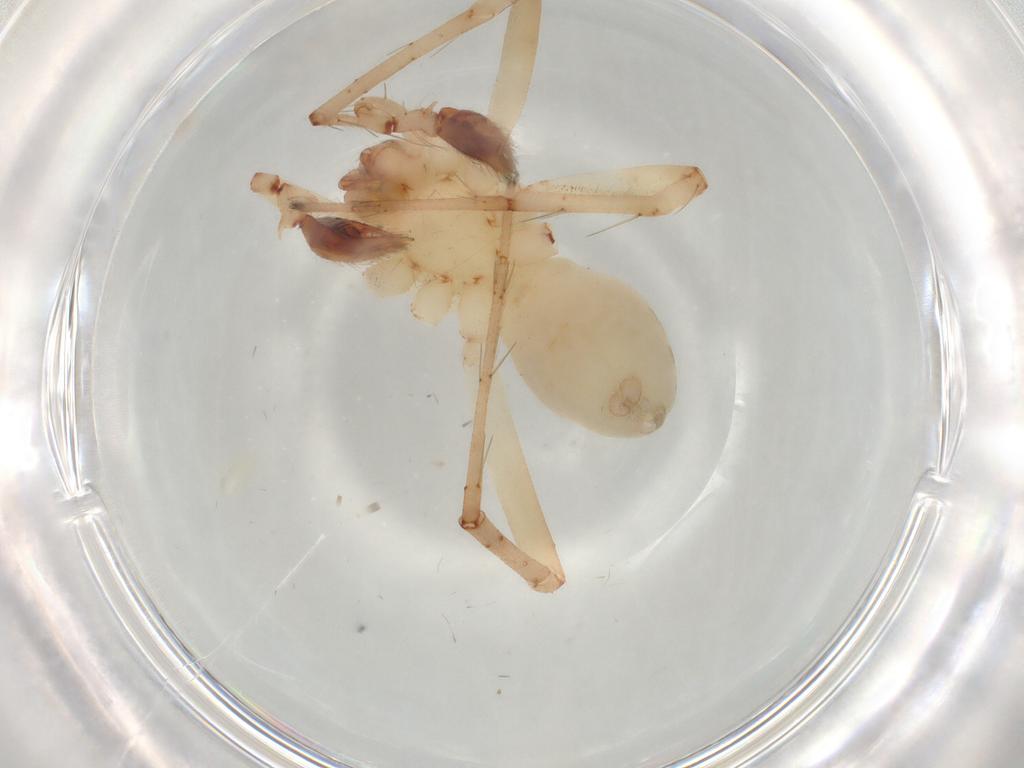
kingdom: Animalia
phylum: Arthropoda
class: Arachnida
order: Araneae
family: Anyphaenidae
